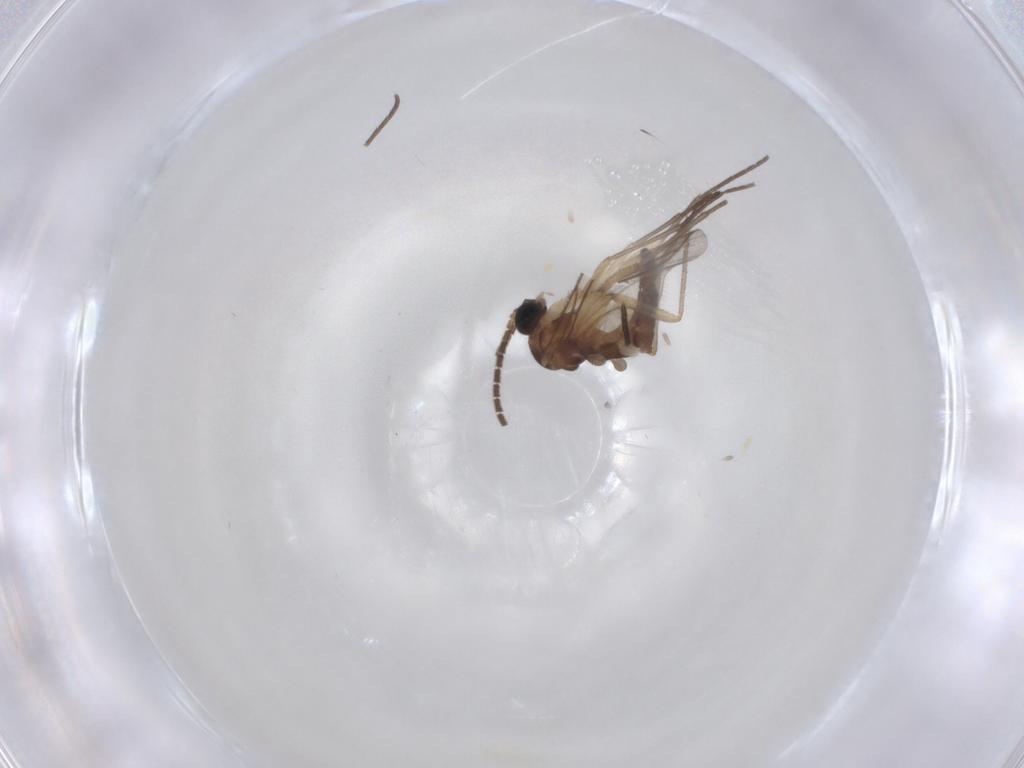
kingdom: Animalia
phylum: Arthropoda
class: Insecta
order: Diptera
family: Sciaridae
